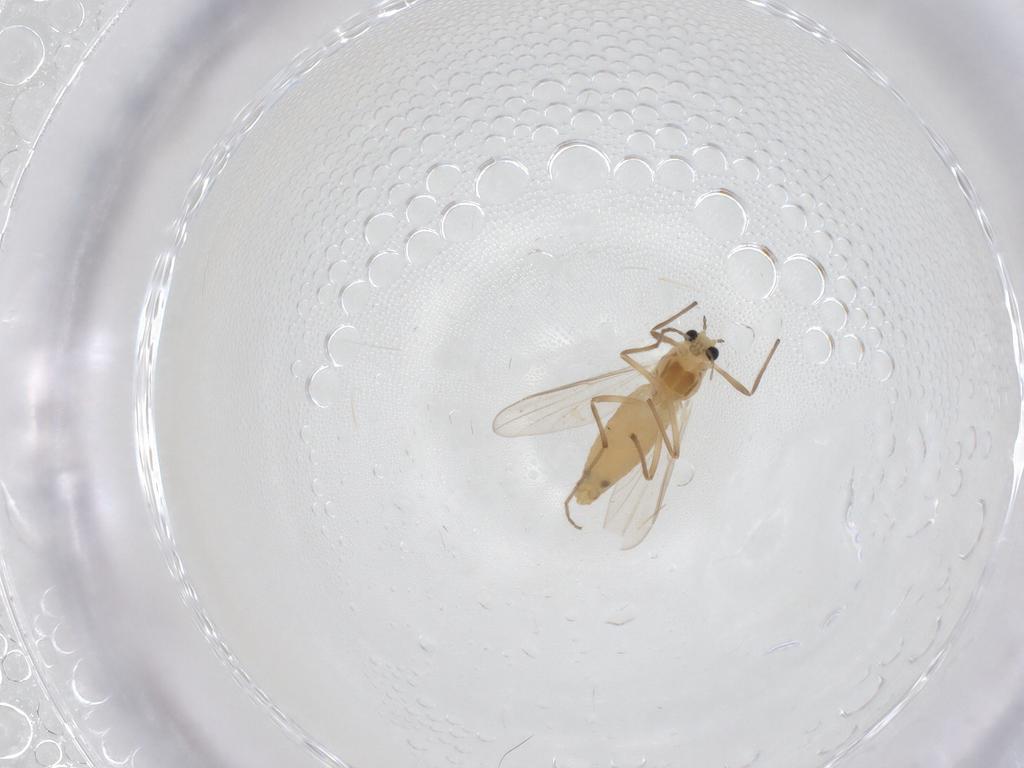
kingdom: Animalia
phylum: Arthropoda
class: Insecta
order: Diptera
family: Chironomidae
